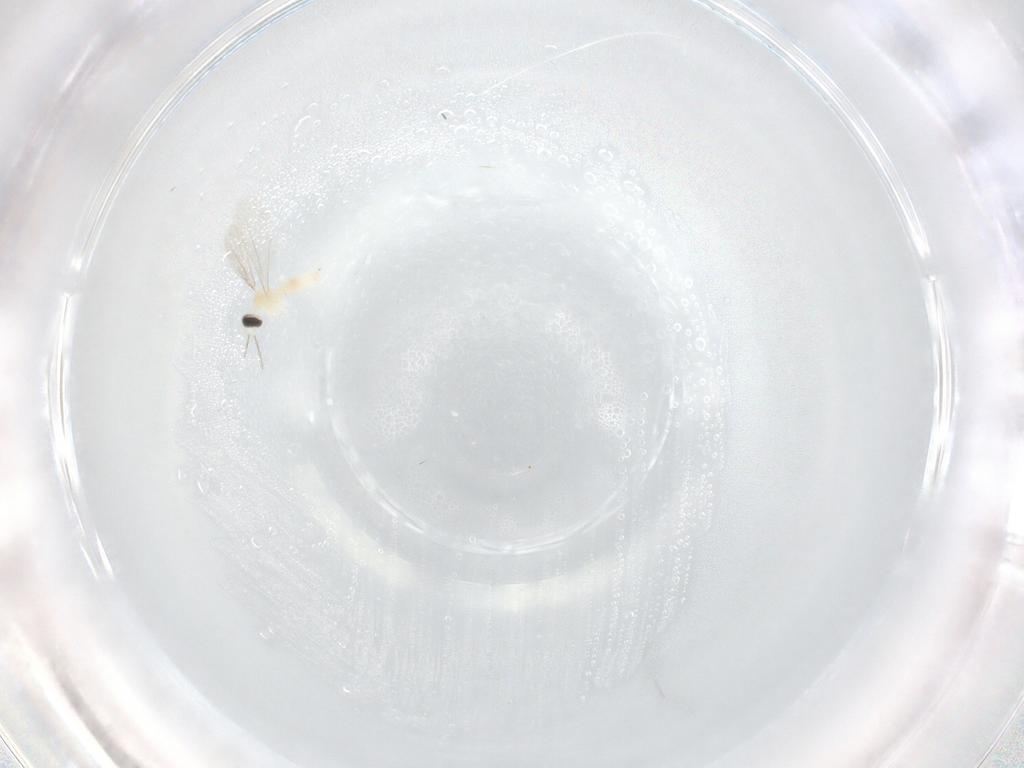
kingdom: Animalia
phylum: Arthropoda
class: Insecta
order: Diptera
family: Cecidomyiidae
